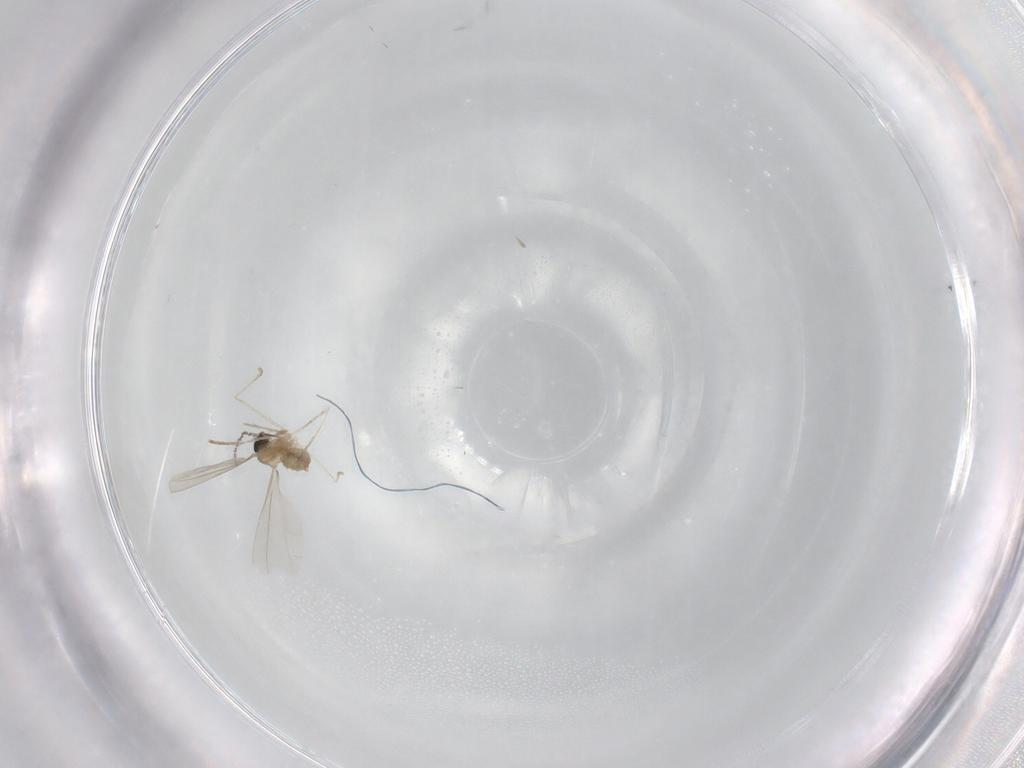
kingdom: Animalia
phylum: Arthropoda
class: Insecta
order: Diptera
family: Cecidomyiidae
